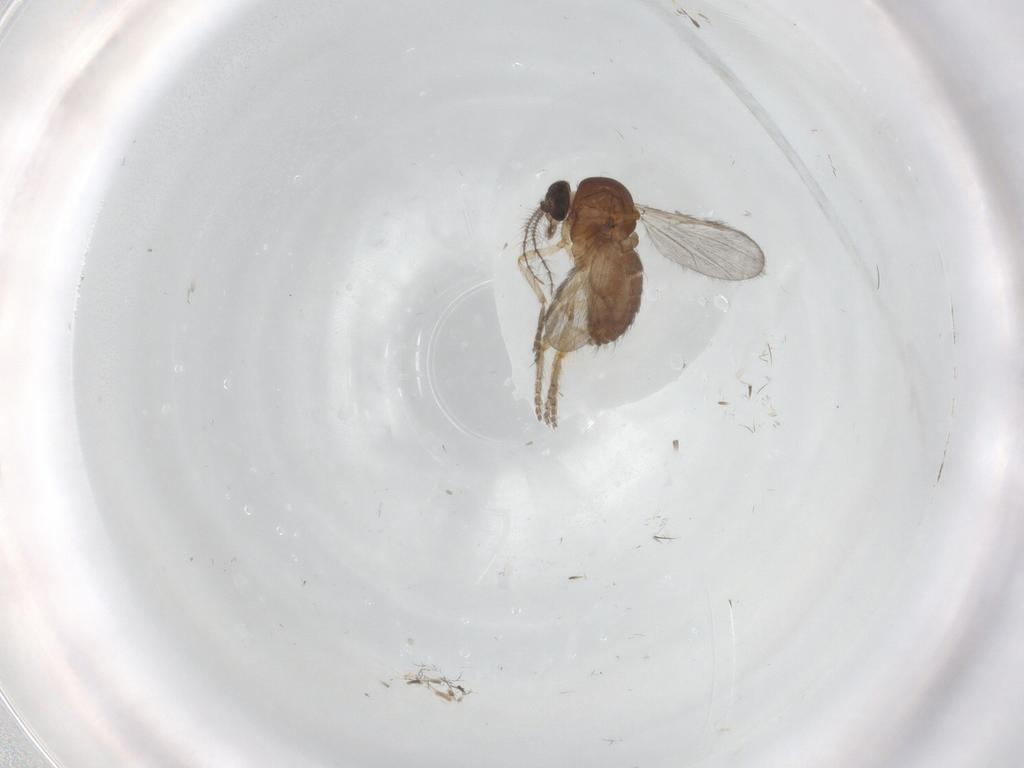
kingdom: Animalia
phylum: Arthropoda
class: Insecta
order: Diptera
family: Ceratopogonidae
